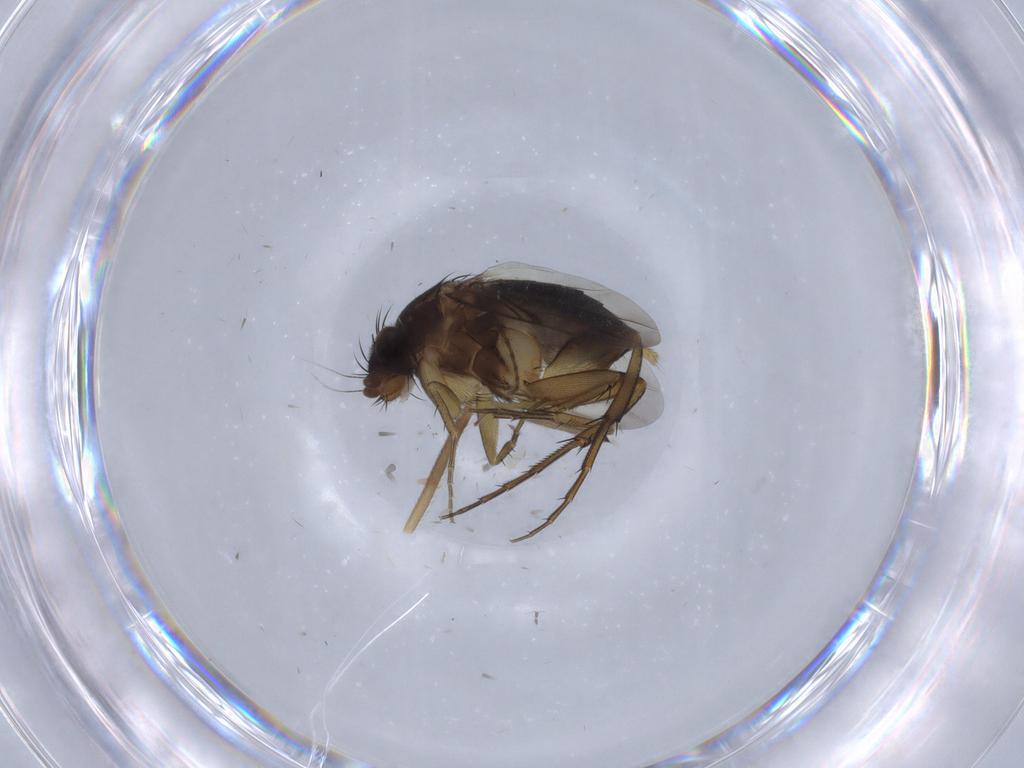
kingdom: Animalia
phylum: Arthropoda
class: Insecta
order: Diptera
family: Phoridae
